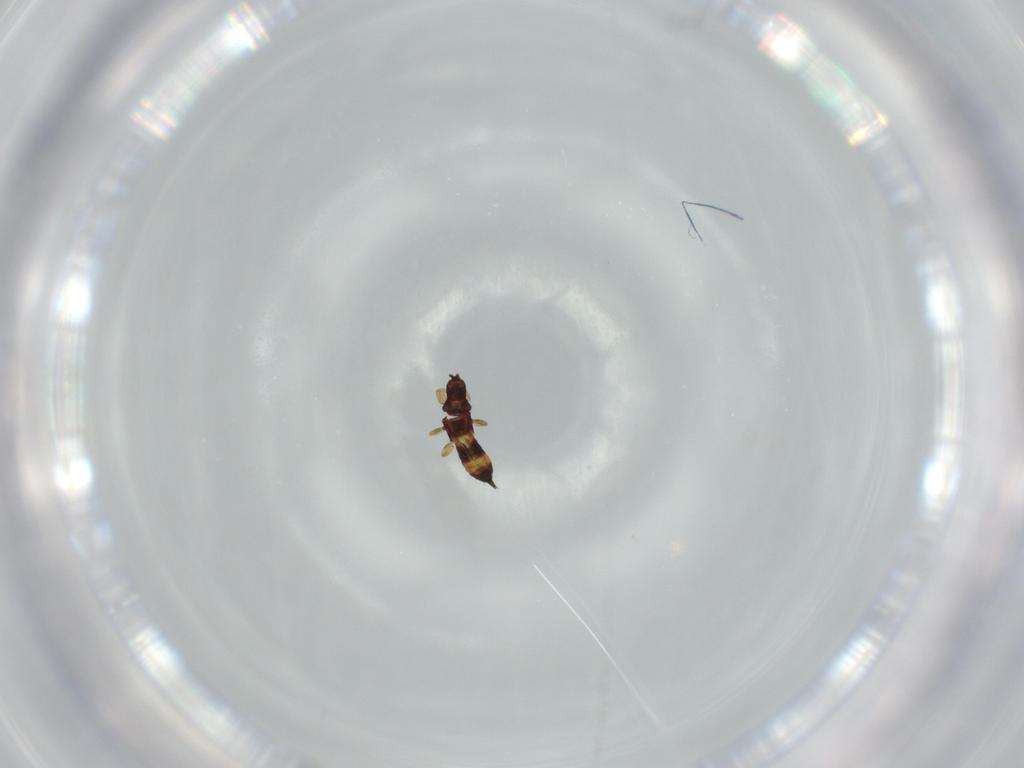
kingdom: Animalia
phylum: Arthropoda
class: Insecta
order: Thysanoptera
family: Phlaeothripidae
